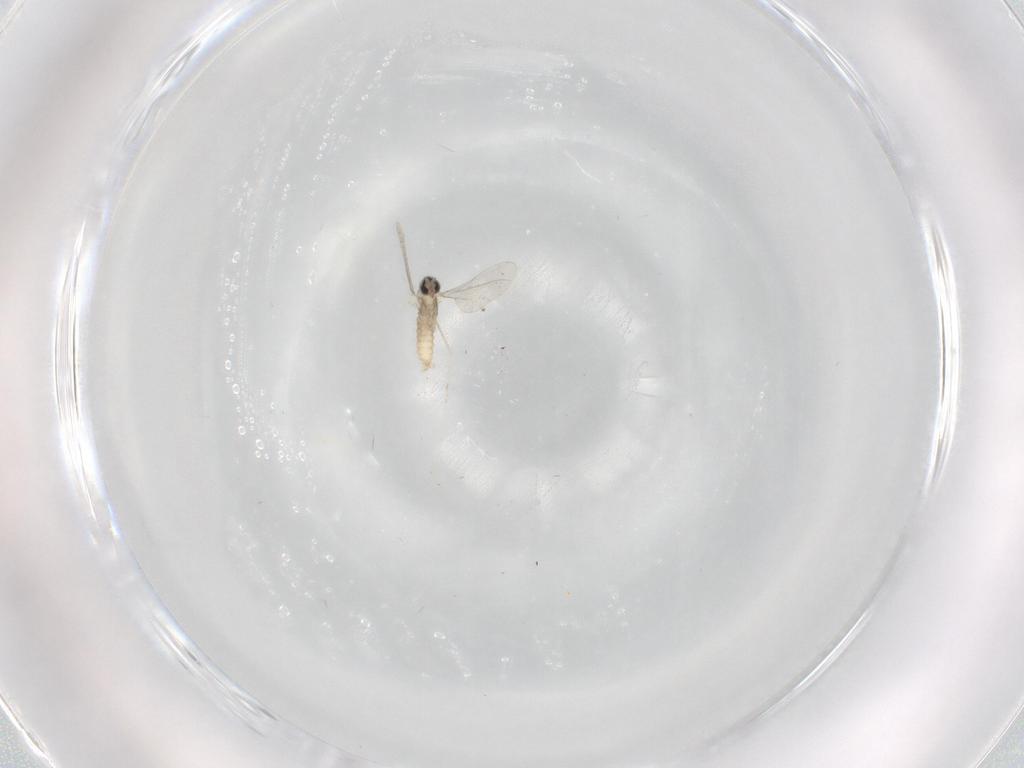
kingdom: Animalia
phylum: Arthropoda
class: Insecta
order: Diptera
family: Cecidomyiidae
